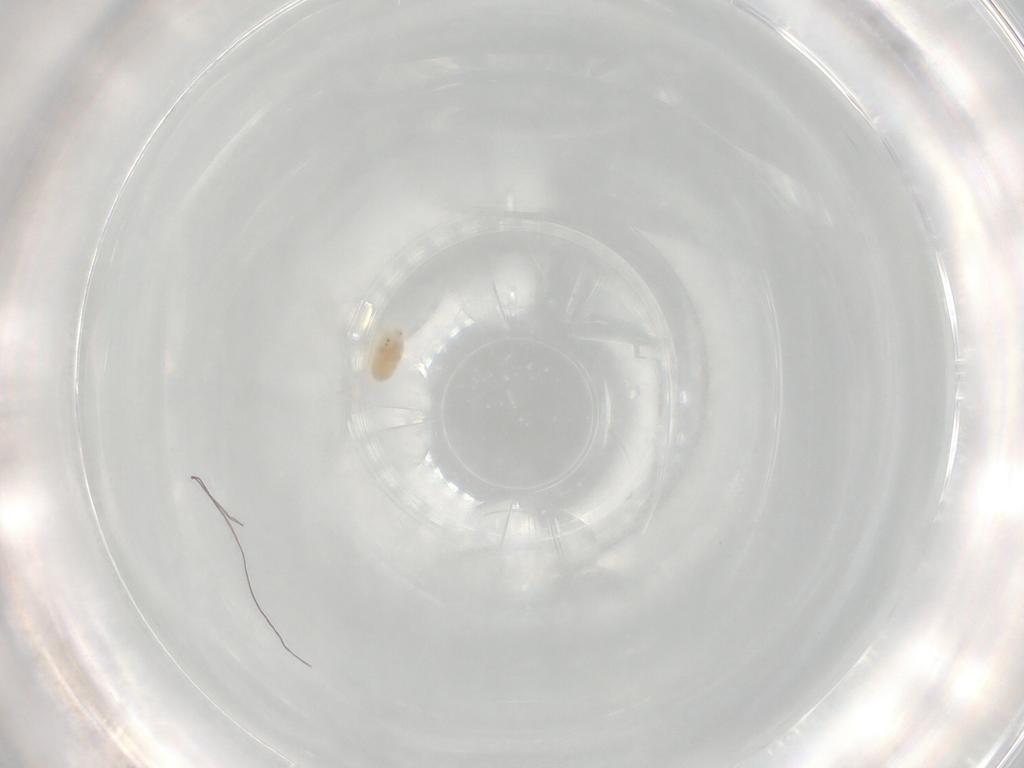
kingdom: Animalia
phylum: Arthropoda
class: Arachnida
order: Trombidiformes
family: Bdellidae
